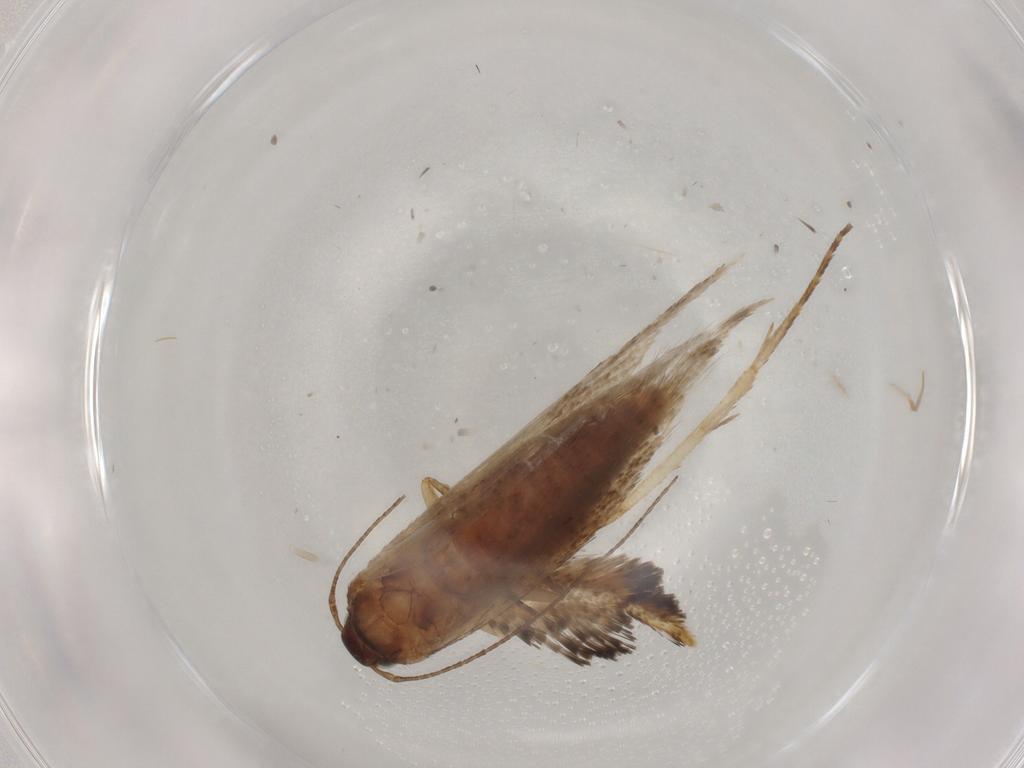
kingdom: Animalia
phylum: Arthropoda
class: Insecta
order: Lepidoptera
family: Gelechiidae
